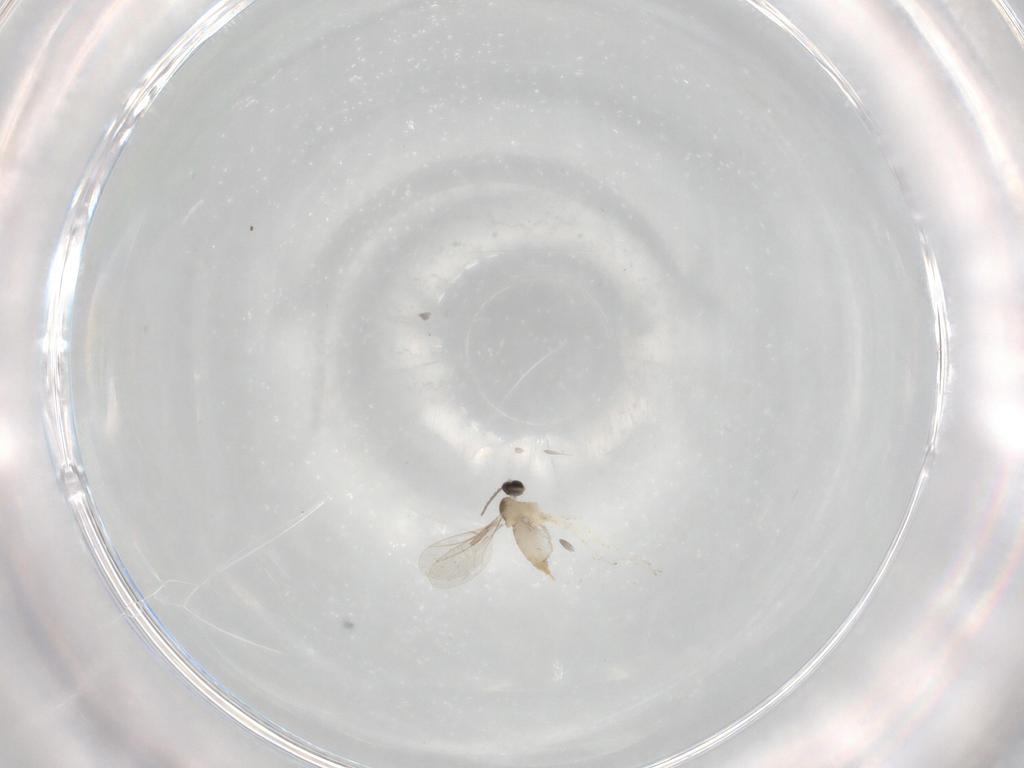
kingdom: Animalia
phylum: Arthropoda
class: Insecta
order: Diptera
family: Cecidomyiidae
